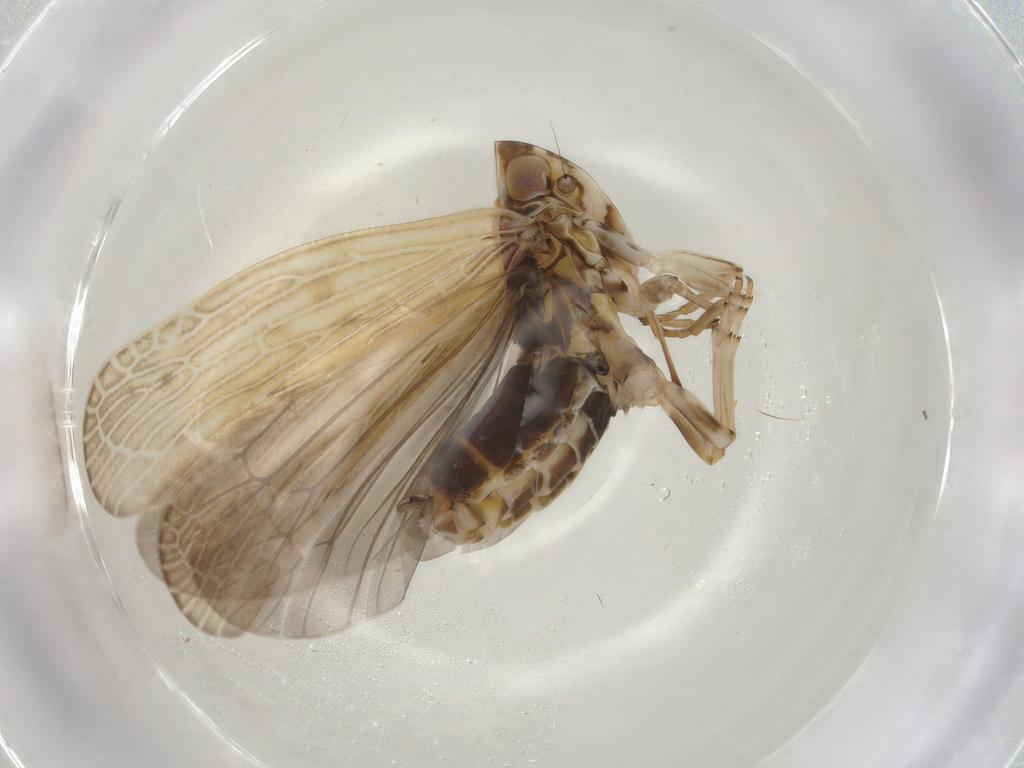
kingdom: Animalia
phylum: Arthropoda
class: Insecta
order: Hemiptera
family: Achilidae
